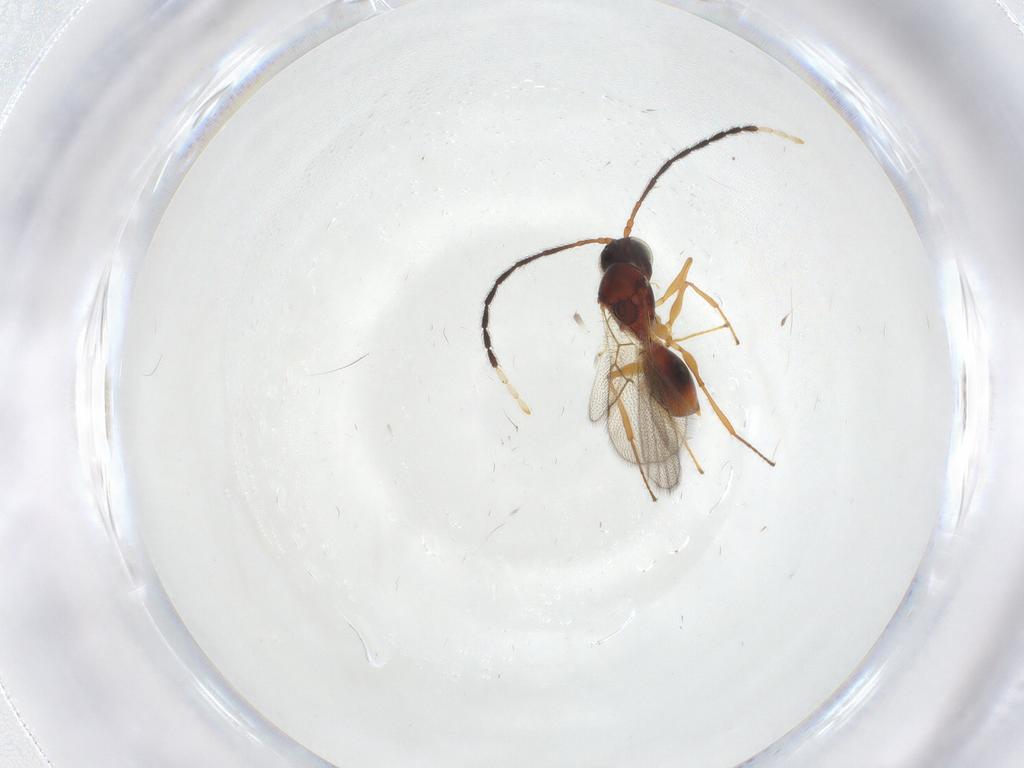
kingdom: Animalia
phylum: Arthropoda
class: Insecta
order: Hymenoptera
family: Figitidae
